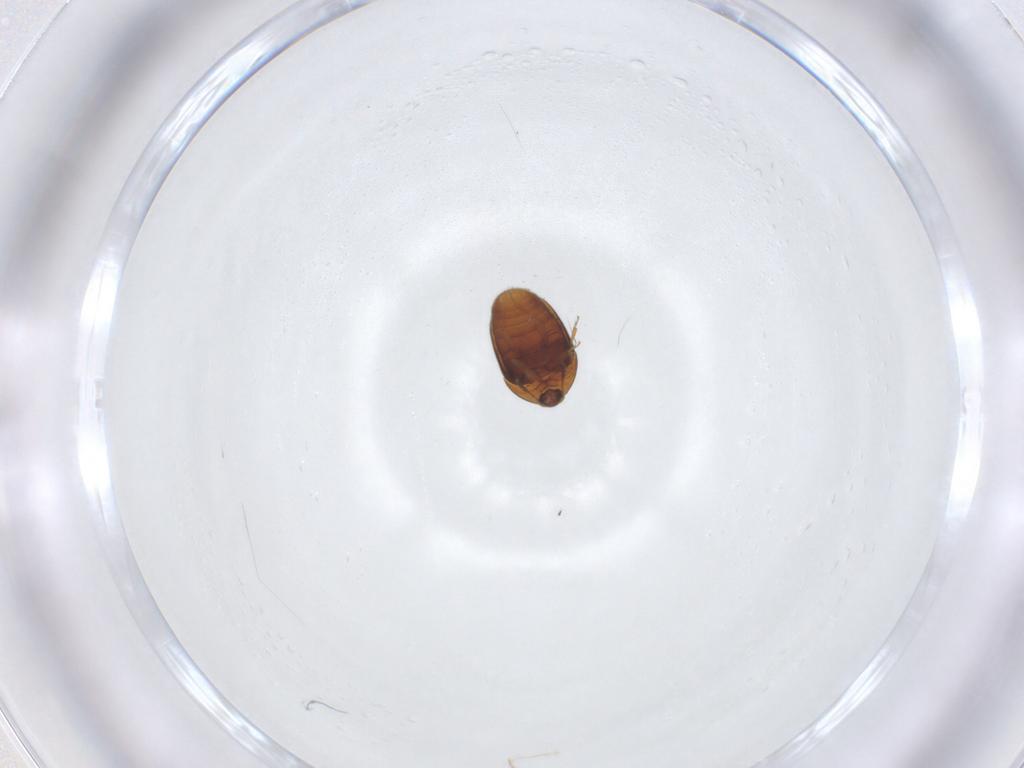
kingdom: Animalia
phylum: Arthropoda
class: Insecta
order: Coleoptera
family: Corylophidae
